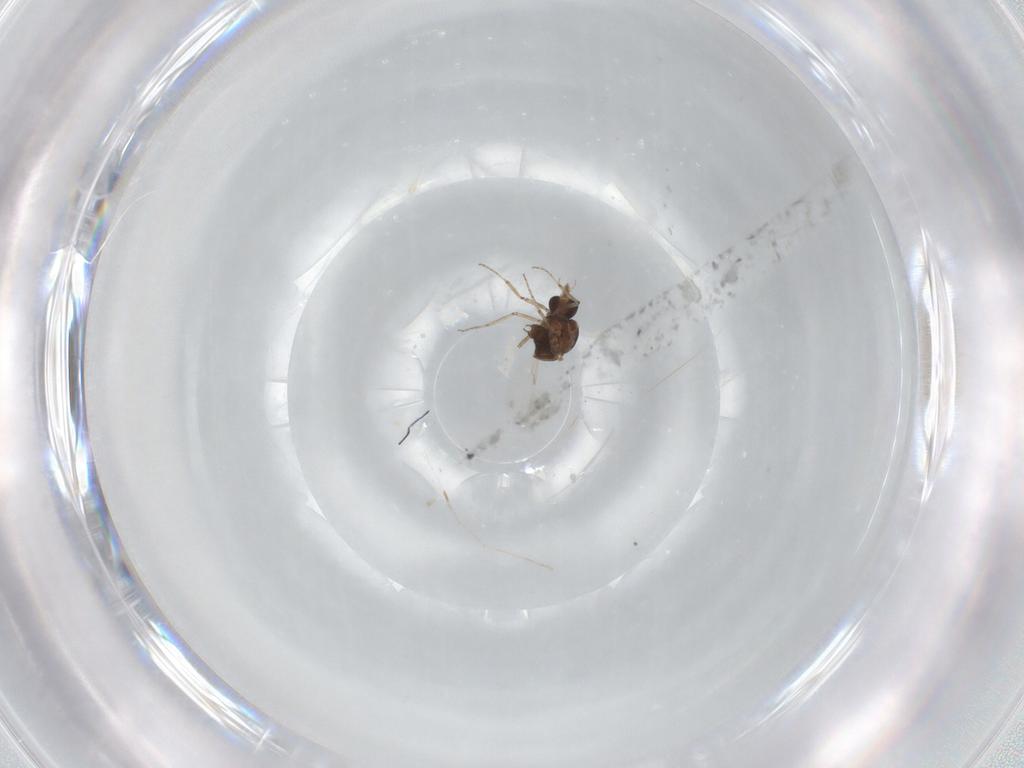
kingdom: Animalia
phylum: Arthropoda
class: Insecta
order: Diptera
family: Ceratopogonidae
